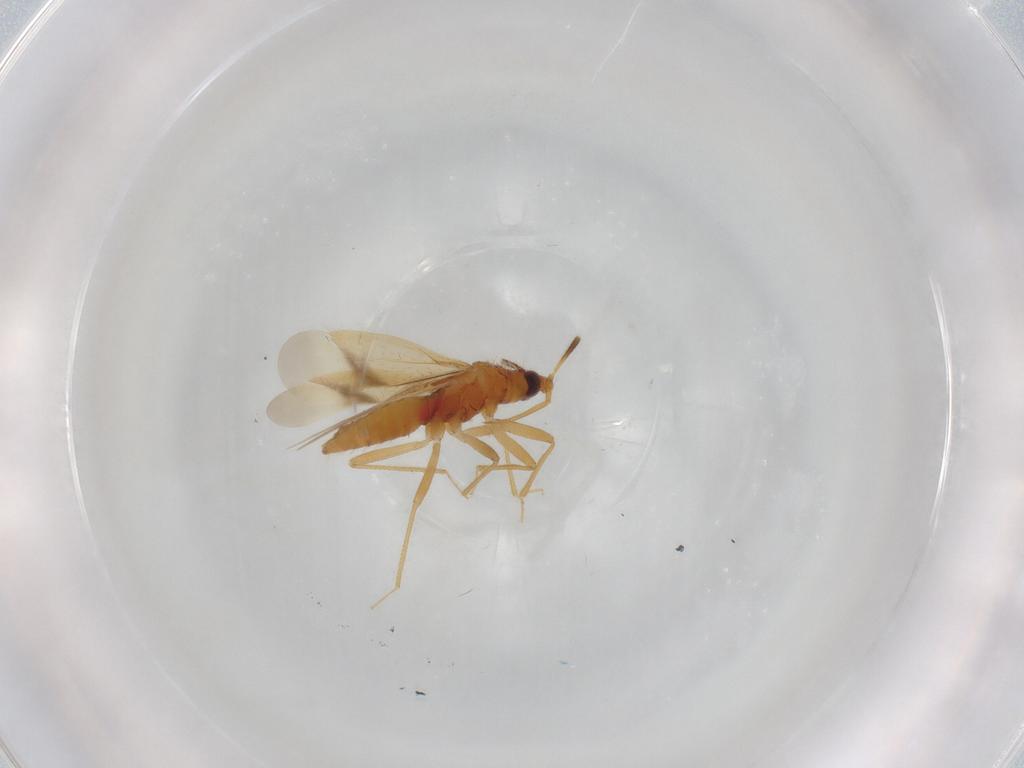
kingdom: Animalia
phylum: Arthropoda
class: Insecta
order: Hemiptera
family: Anthocoridae
